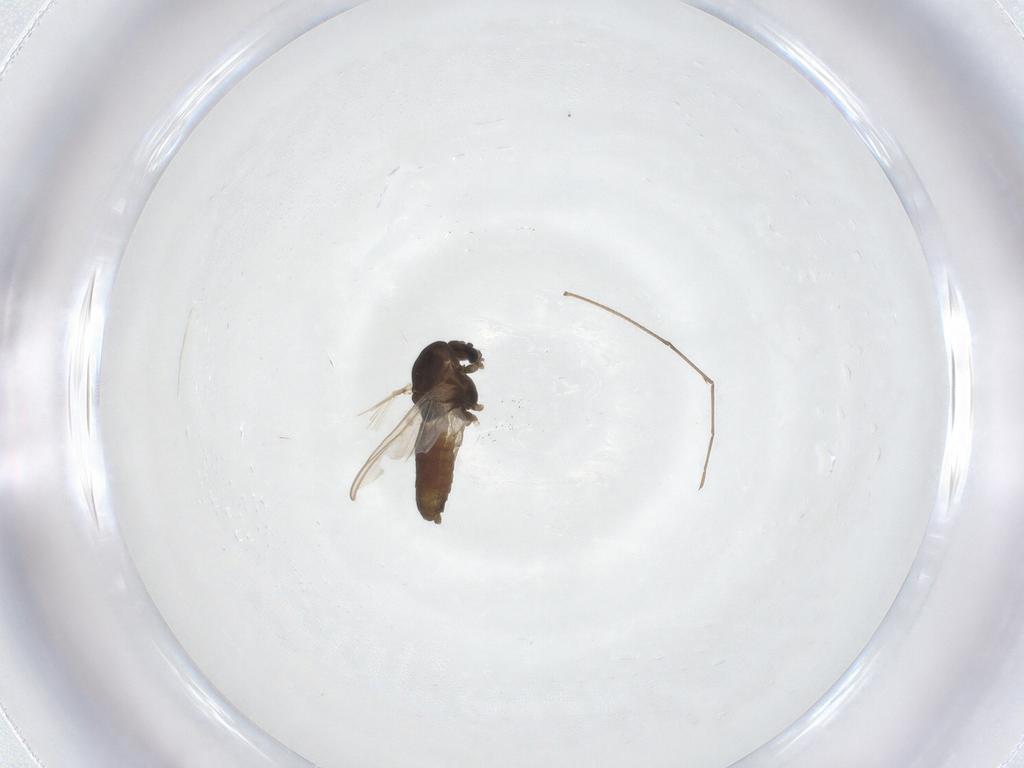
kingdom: Animalia
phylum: Arthropoda
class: Insecta
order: Diptera
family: Chironomidae
